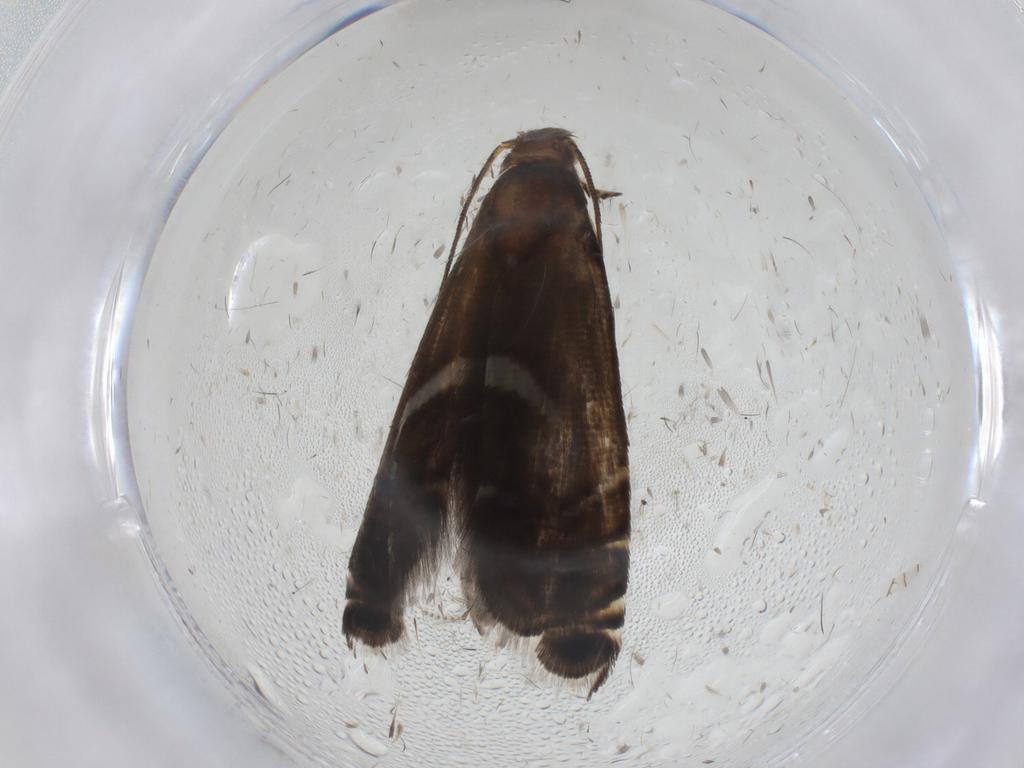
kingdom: Animalia
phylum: Arthropoda
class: Insecta
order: Lepidoptera
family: Glyphipterigidae
